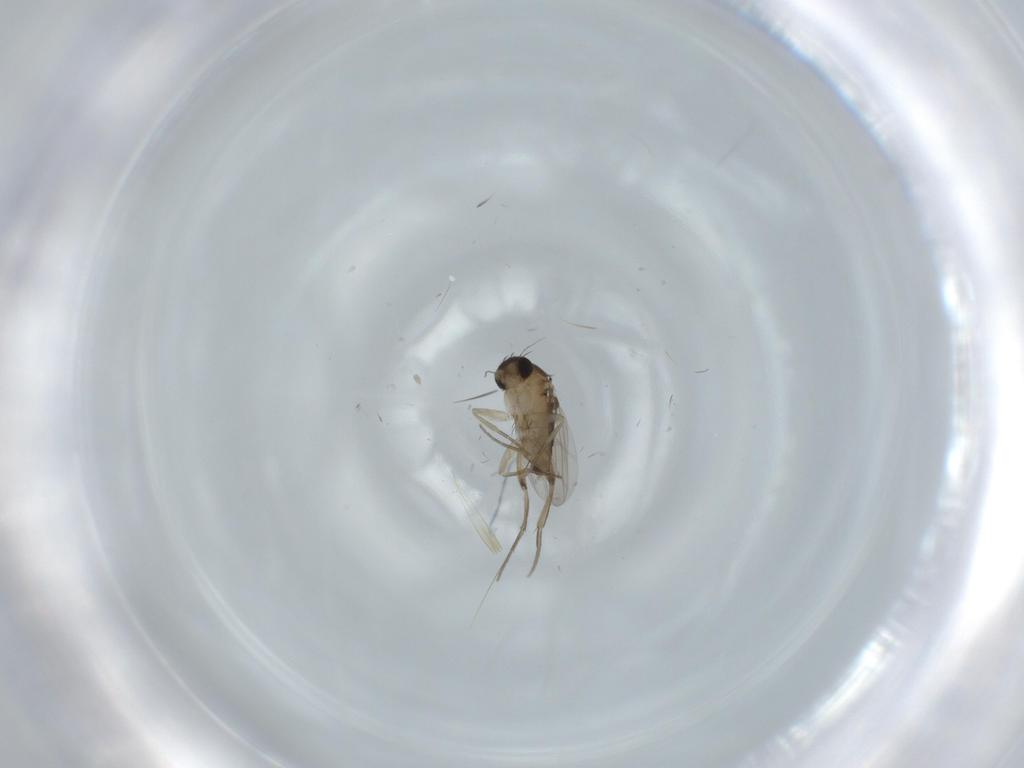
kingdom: Animalia
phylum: Arthropoda
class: Insecta
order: Diptera
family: Phoridae
